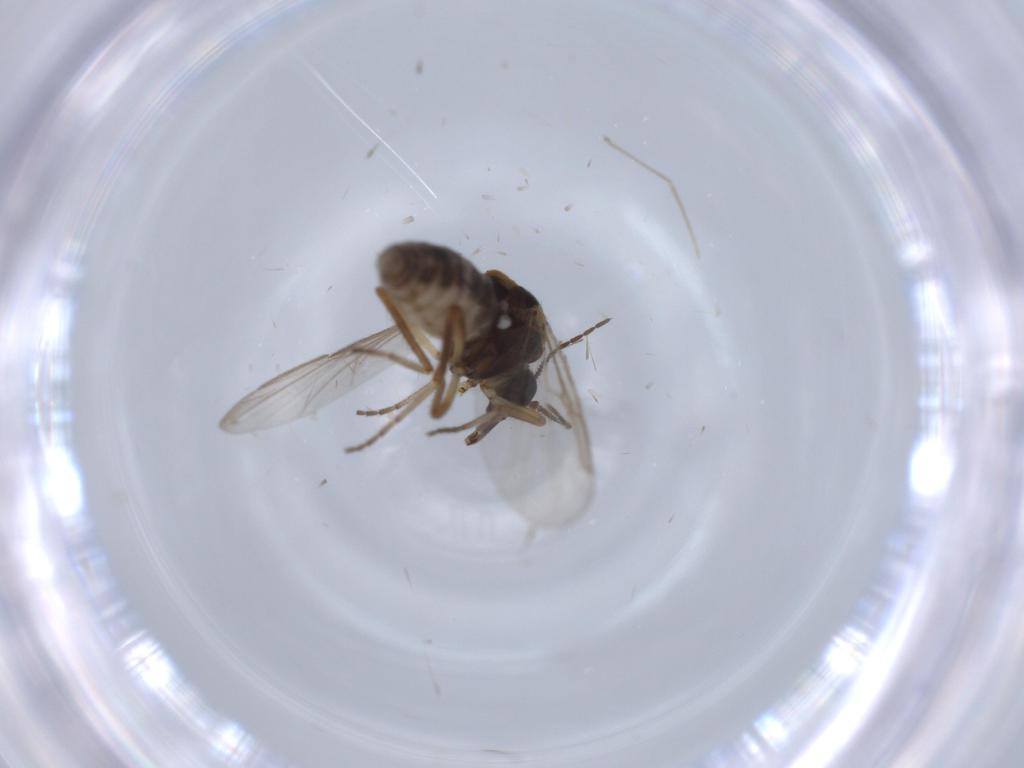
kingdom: Animalia
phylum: Arthropoda
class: Insecta
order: Diptera
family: Ceratopogonidae
